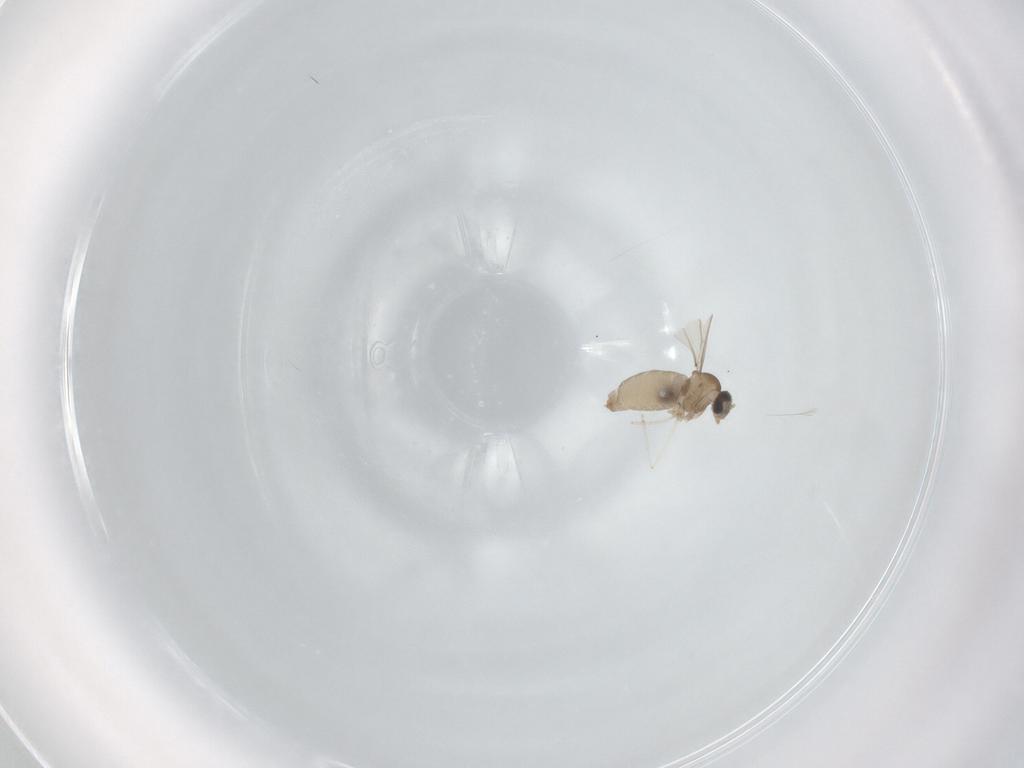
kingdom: Animalia
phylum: Arthropoda
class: Insecta
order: Diptera
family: Cecidomyiidae
